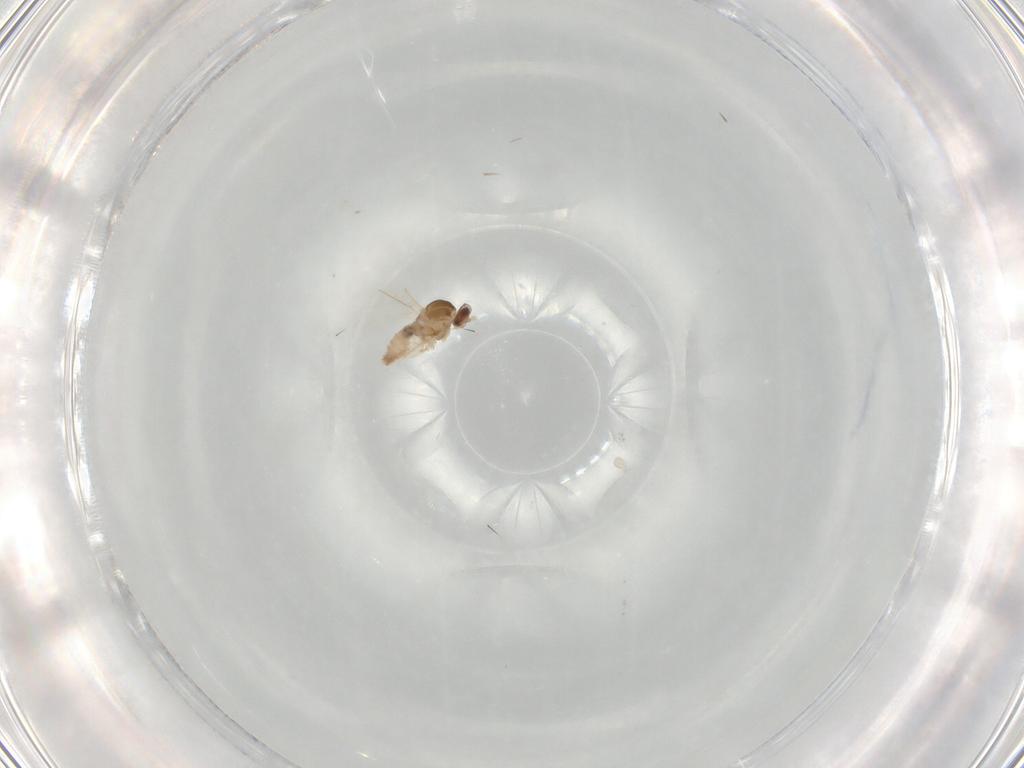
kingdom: Animalia
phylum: Arthropoda
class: Insecta
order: Diptera
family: Cecidomyiidae
